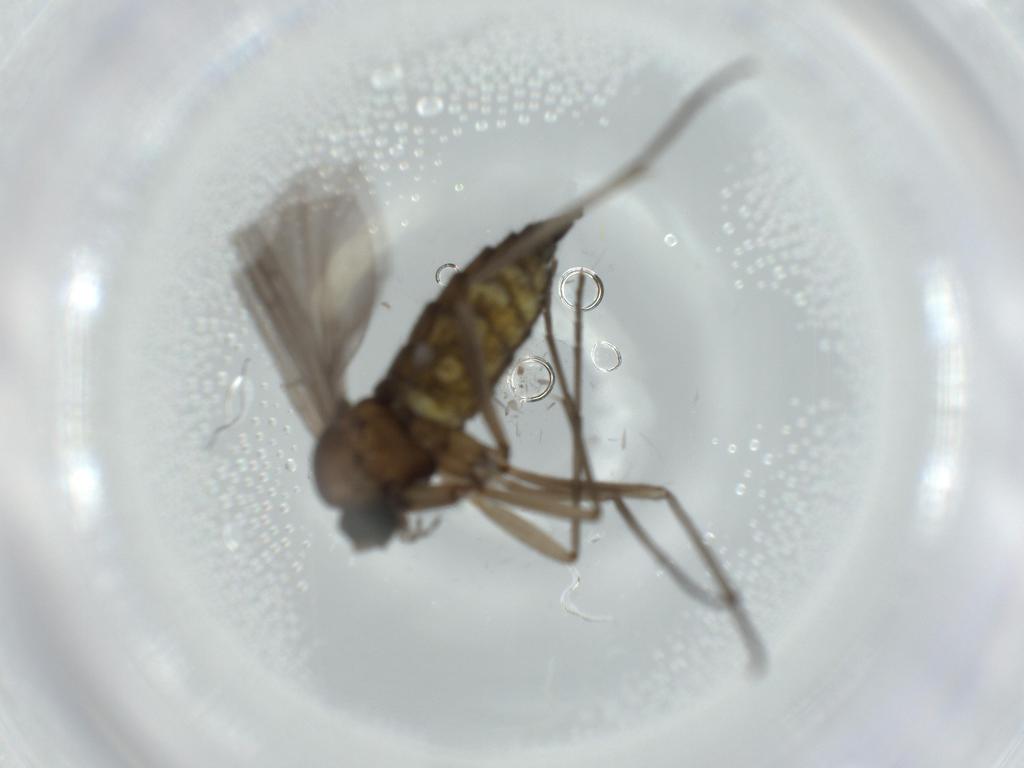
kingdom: Animalia
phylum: Arthropoda
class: Insecta
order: Diptera
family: Sciaridae
